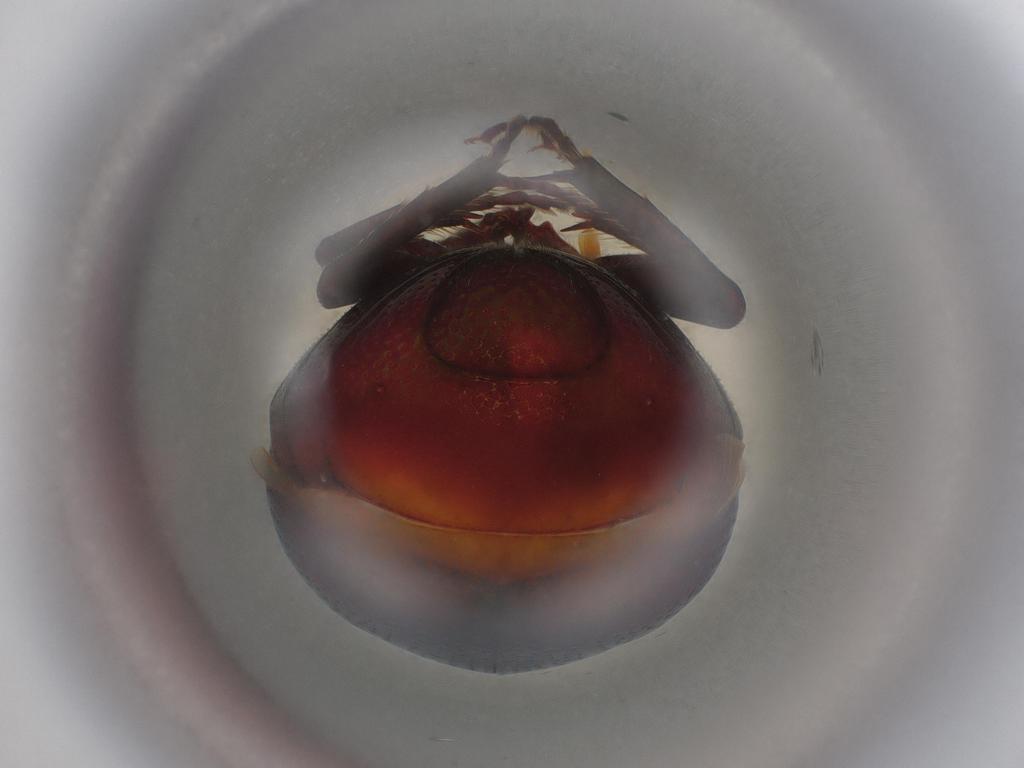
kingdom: Animalia
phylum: Arthropoda
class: Insecta
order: Coleoptera
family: Scarabaeidae
